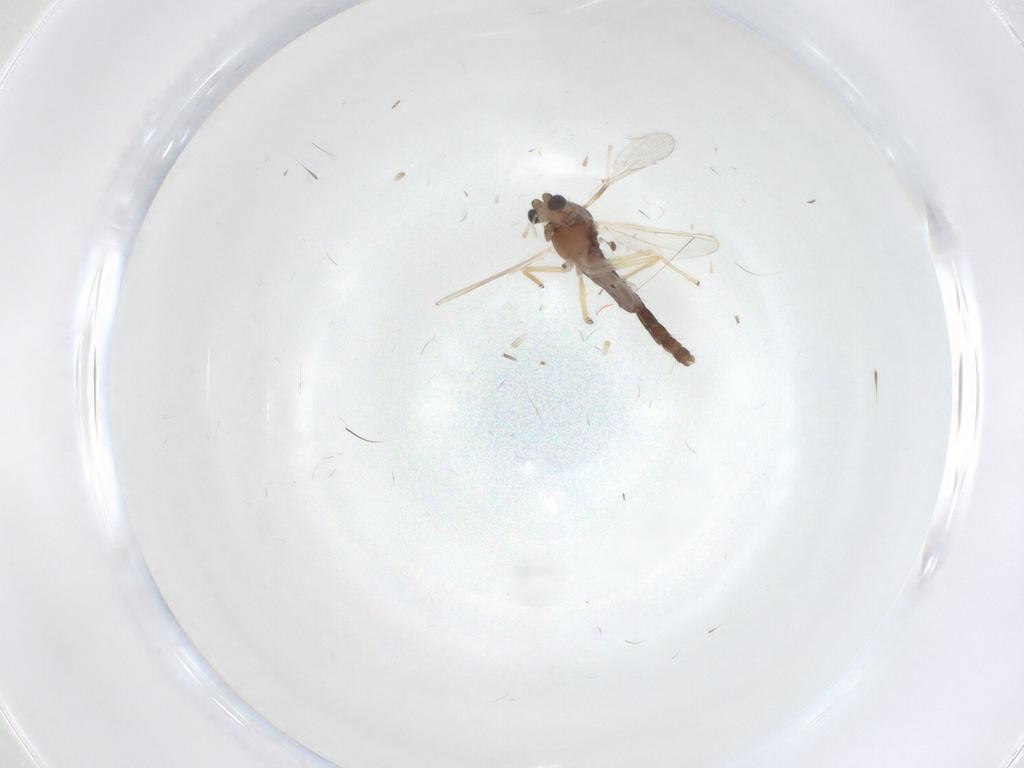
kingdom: Animalia
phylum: Arthropoda
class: Insecta
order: Diptera
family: Chironomidae
